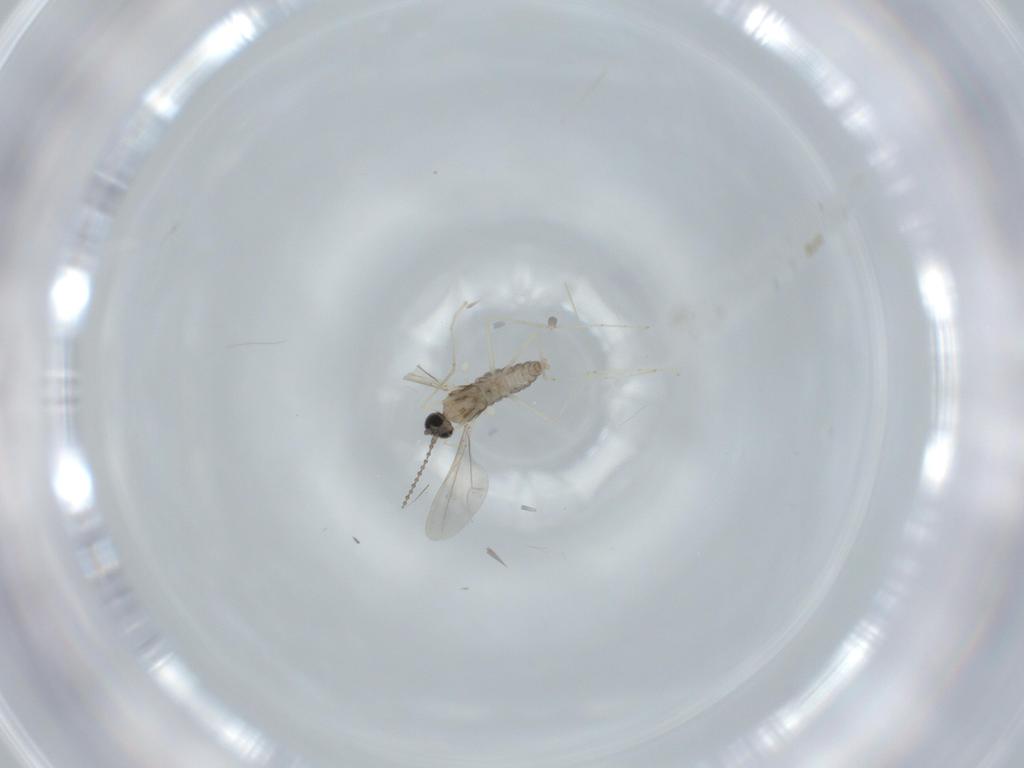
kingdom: Animalia
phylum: Arthropoda
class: Insecta
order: Diptera
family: Cecidomyiidae
